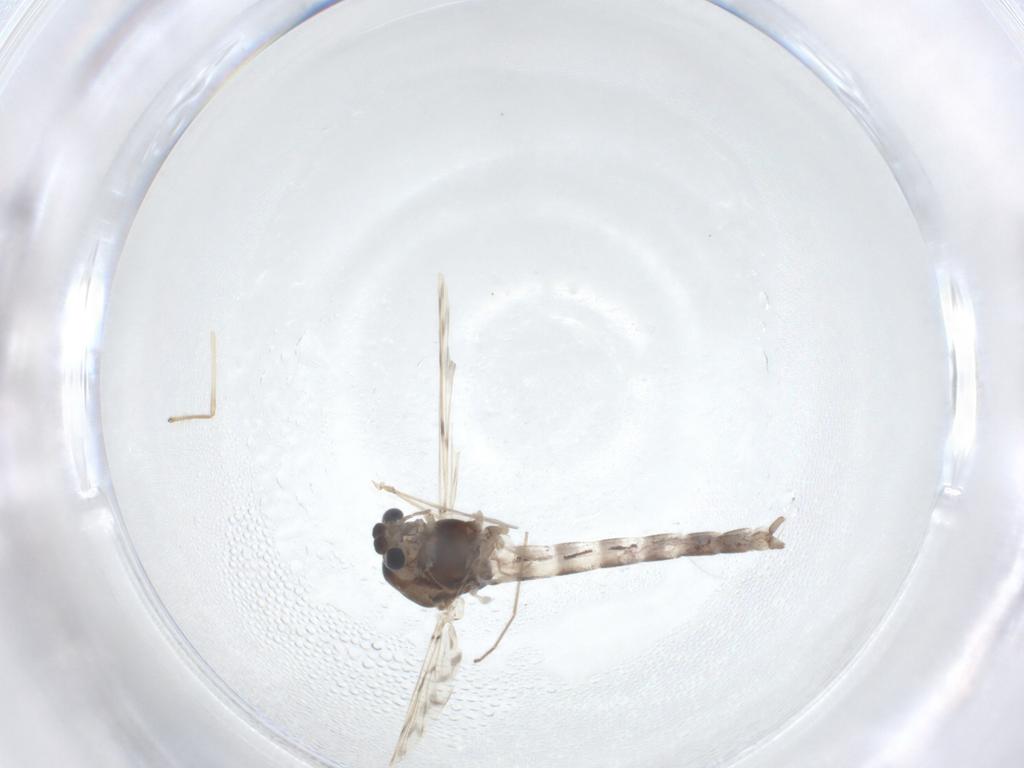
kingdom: Animalia
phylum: Arthropoda
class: Insecta
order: Diptera
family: Chironomidae
